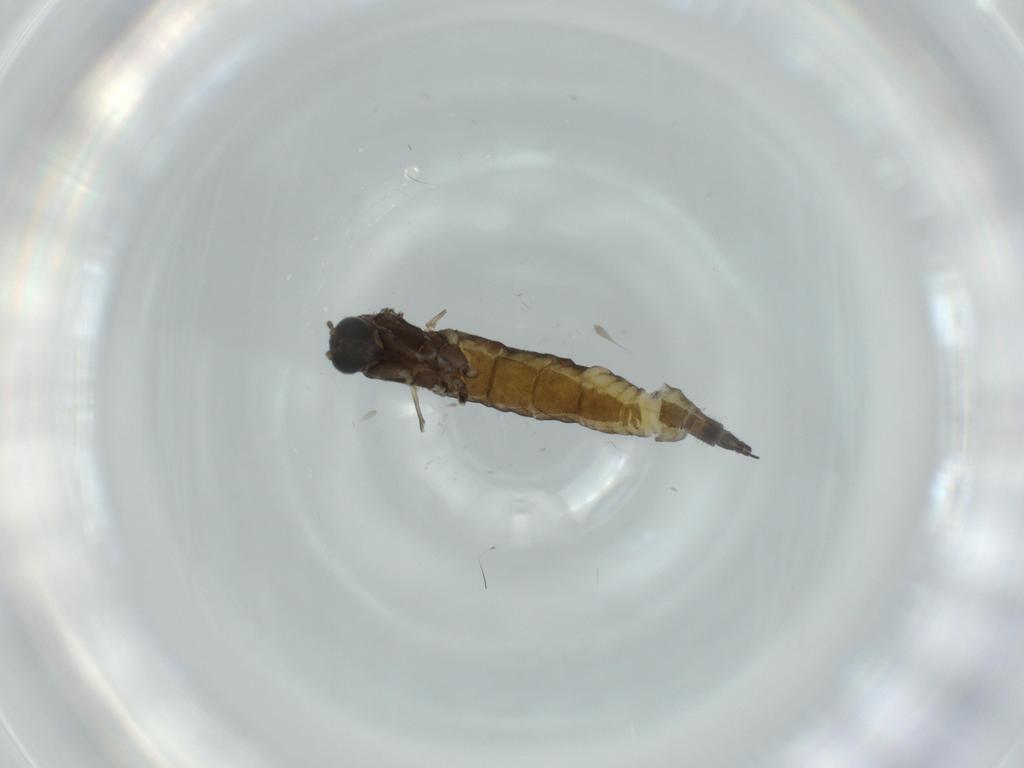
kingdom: Animalia
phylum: Arthropoda
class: Insecta
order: Diptera
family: Sciaridae
